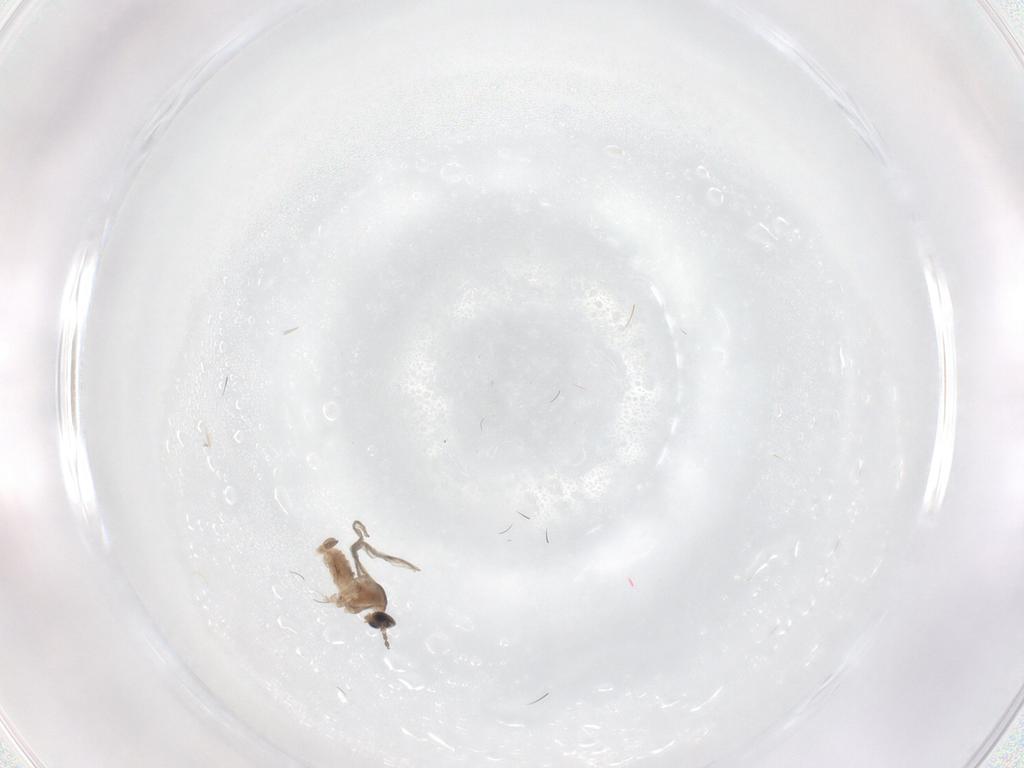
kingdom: Animalia
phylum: Arthropoda
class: Insecta
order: Diptera
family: Cecidomyiidae
